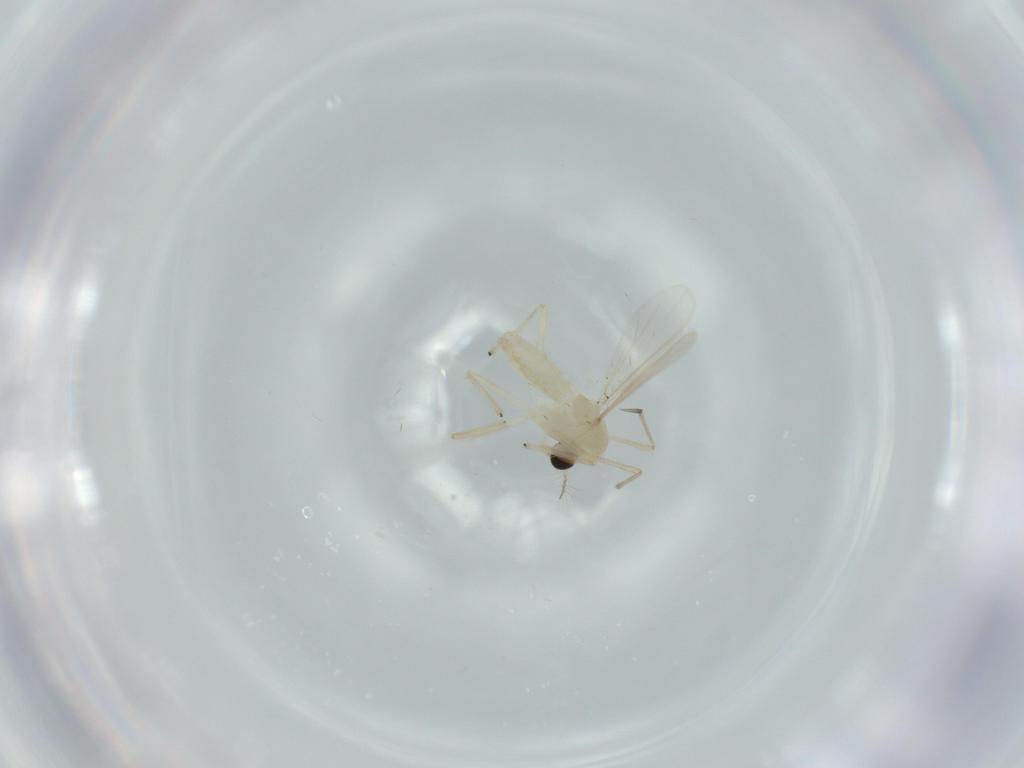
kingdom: Animalia
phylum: Arthropoda
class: Insecta
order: Diptera
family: Chironomidae
